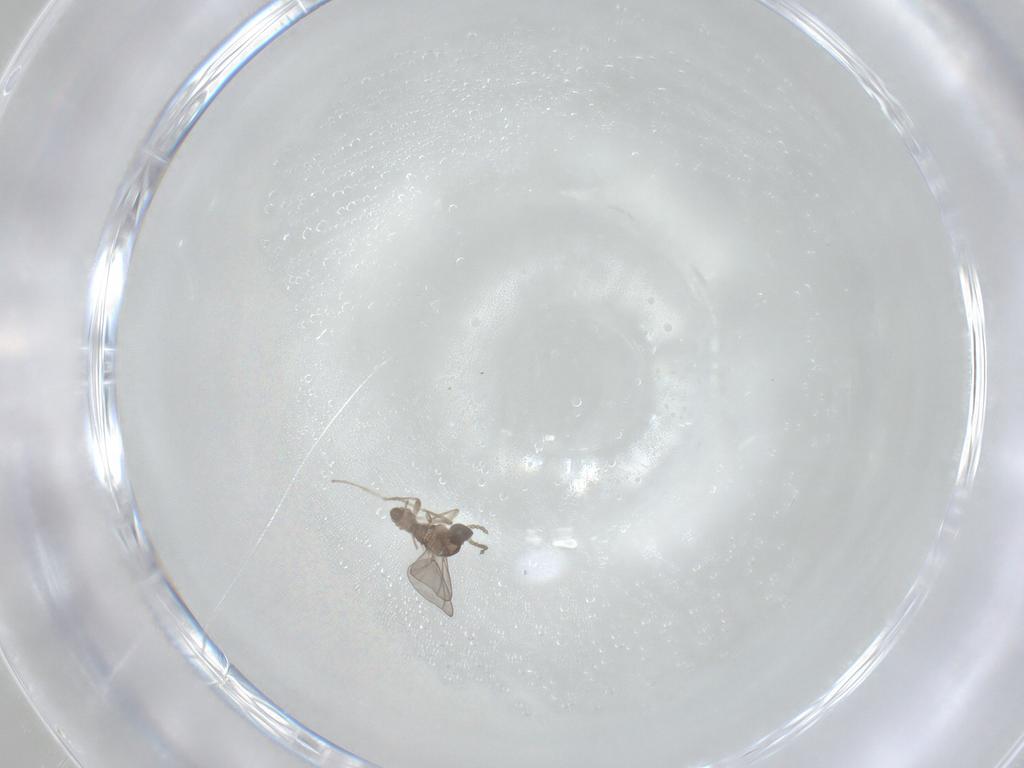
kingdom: Animalia
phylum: Arthropoda
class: Insecta
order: Diptera
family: Cecidomyiidae
